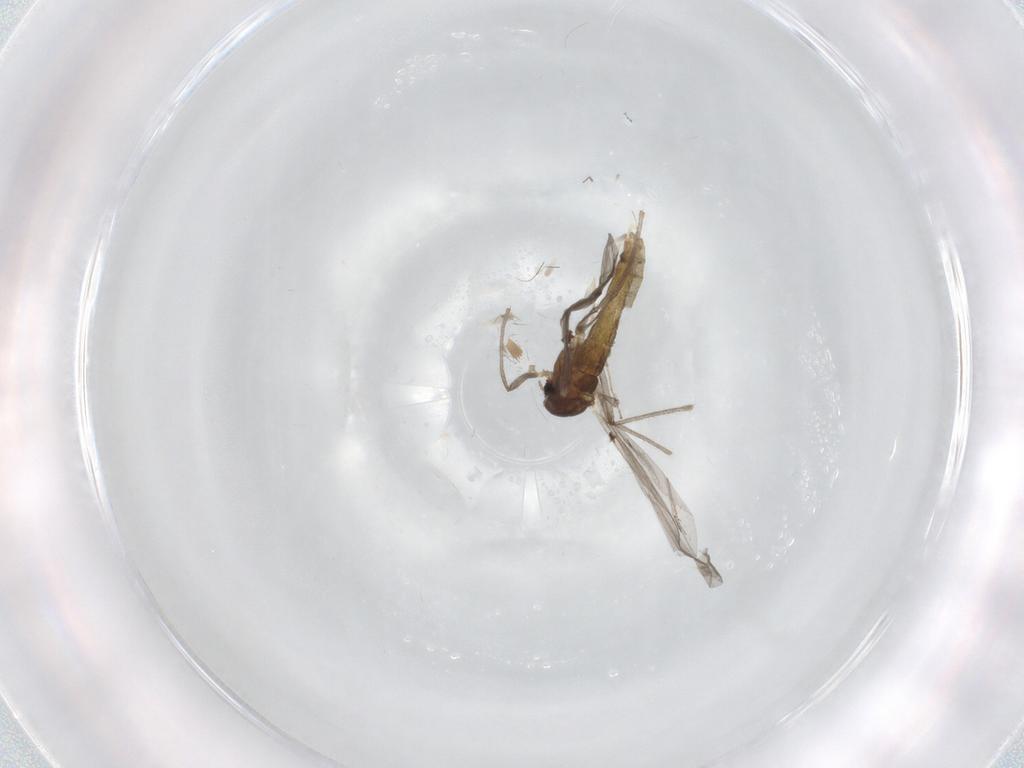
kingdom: Animalia
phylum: Arthropoda
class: Insecta
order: Diptera
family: Chironomidae
